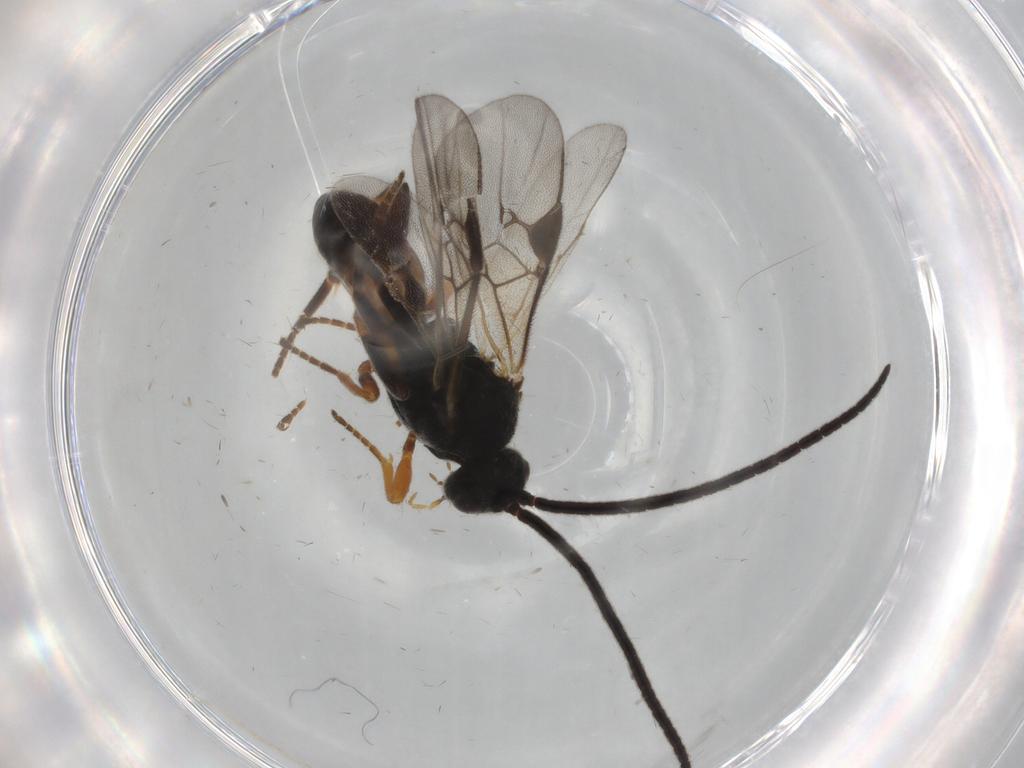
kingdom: Animalia
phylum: Arthropoda
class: Insecta
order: Hymenoptera
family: Braconidae
